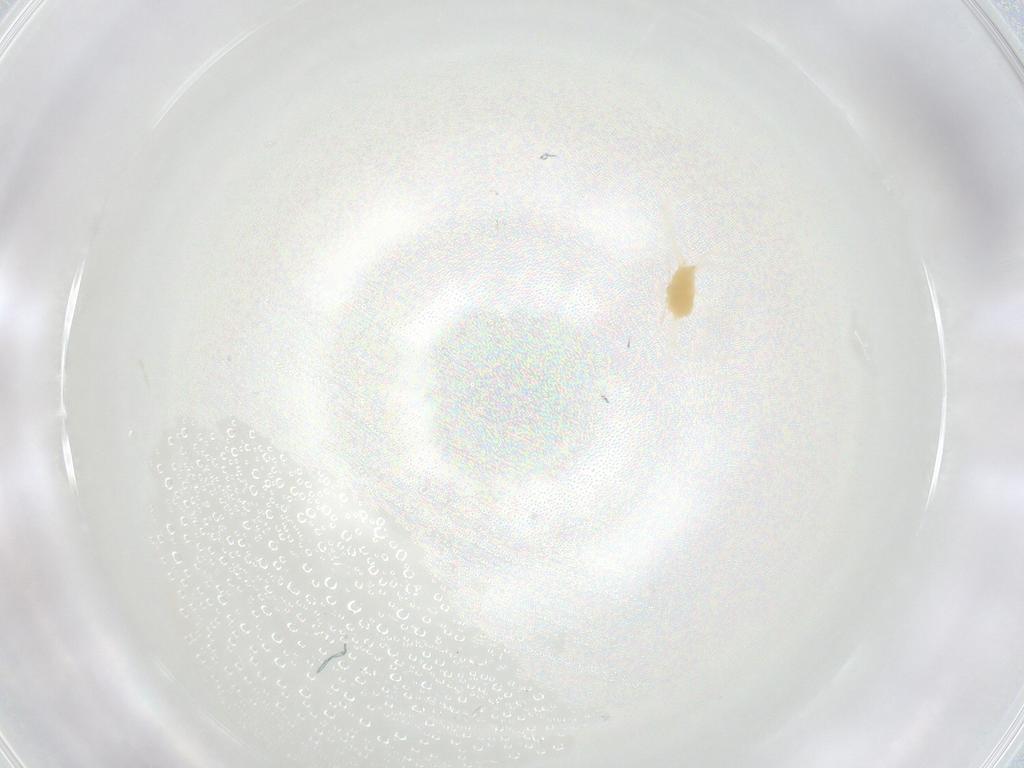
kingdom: Animalia
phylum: Arthropoda
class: Arachnida
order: Trombidiformes
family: Tetranychidae
